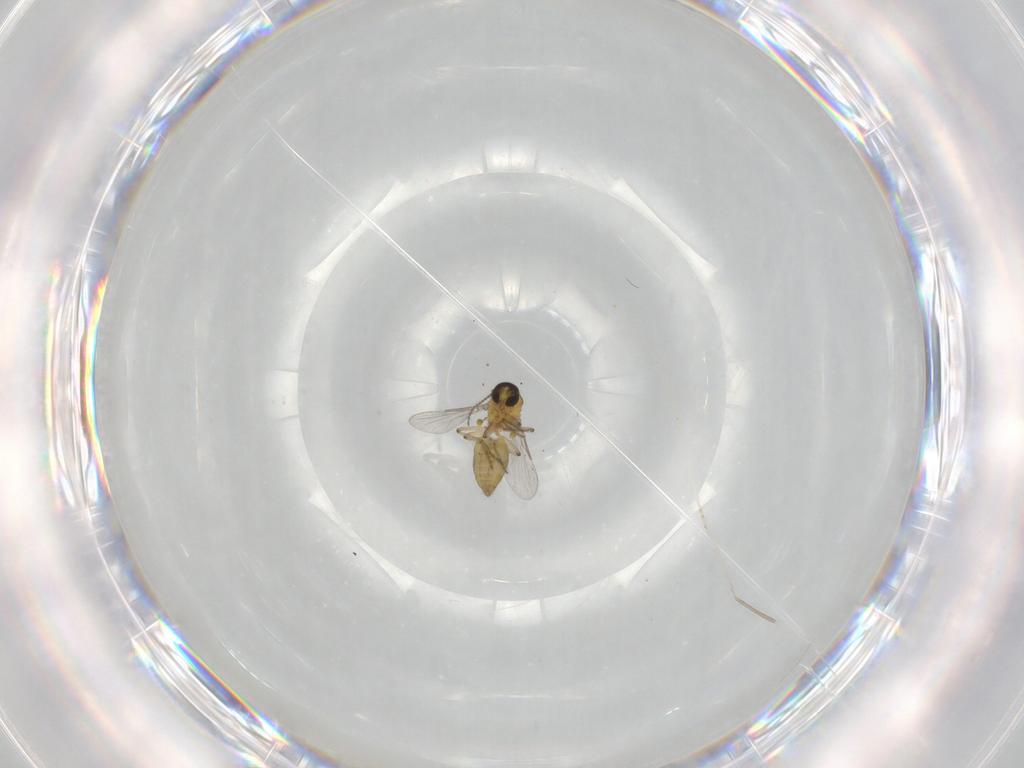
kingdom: Animalia
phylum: Arthropoda
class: Insecta
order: Diptera
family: Ceratopogonidae
